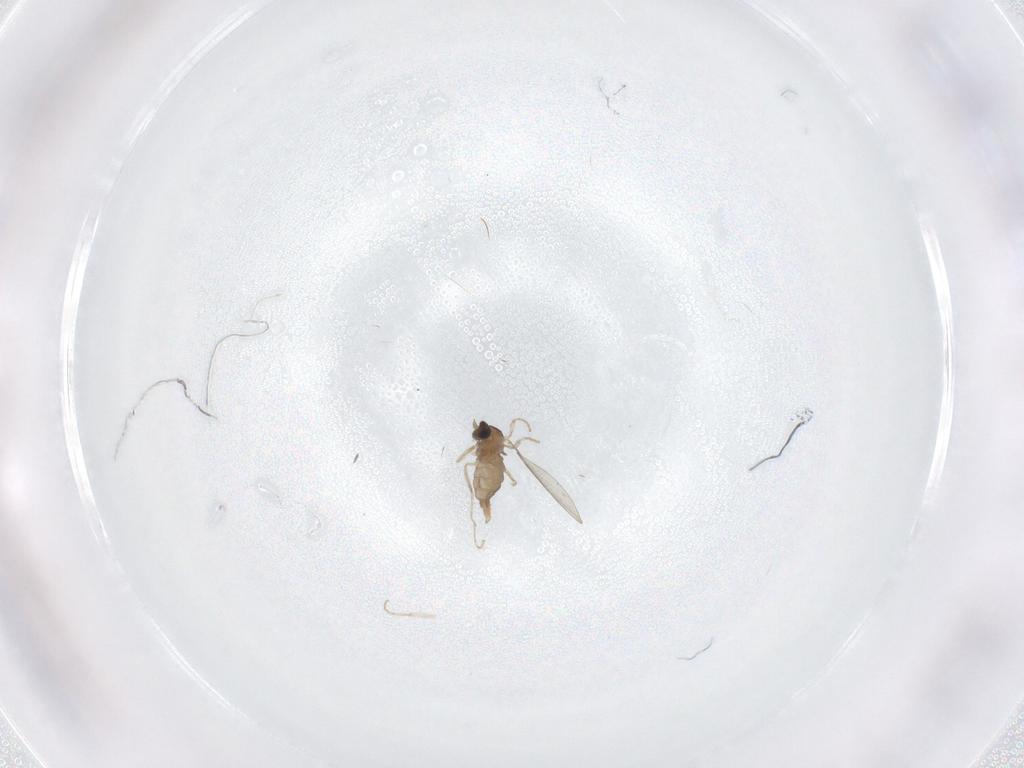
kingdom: Animalia
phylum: Arthropoda
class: Insecta
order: Diptera
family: Cecidomyiidae
